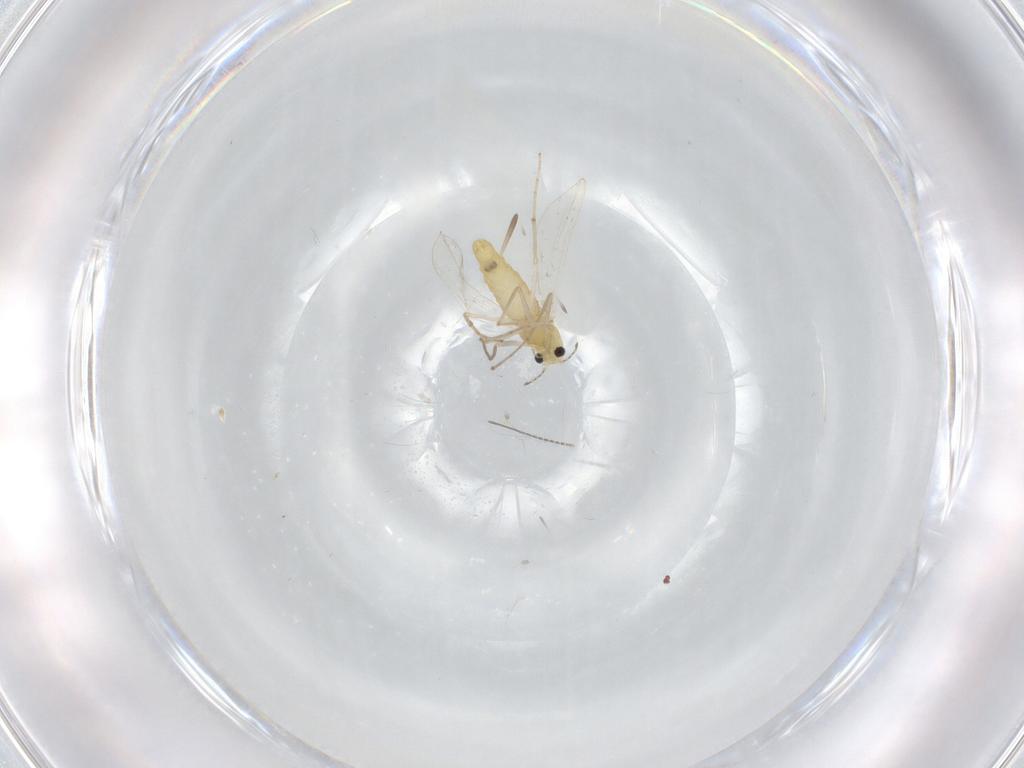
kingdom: Animalia
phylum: Arthropoda
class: Insecta
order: Diptera
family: Chironomidae
